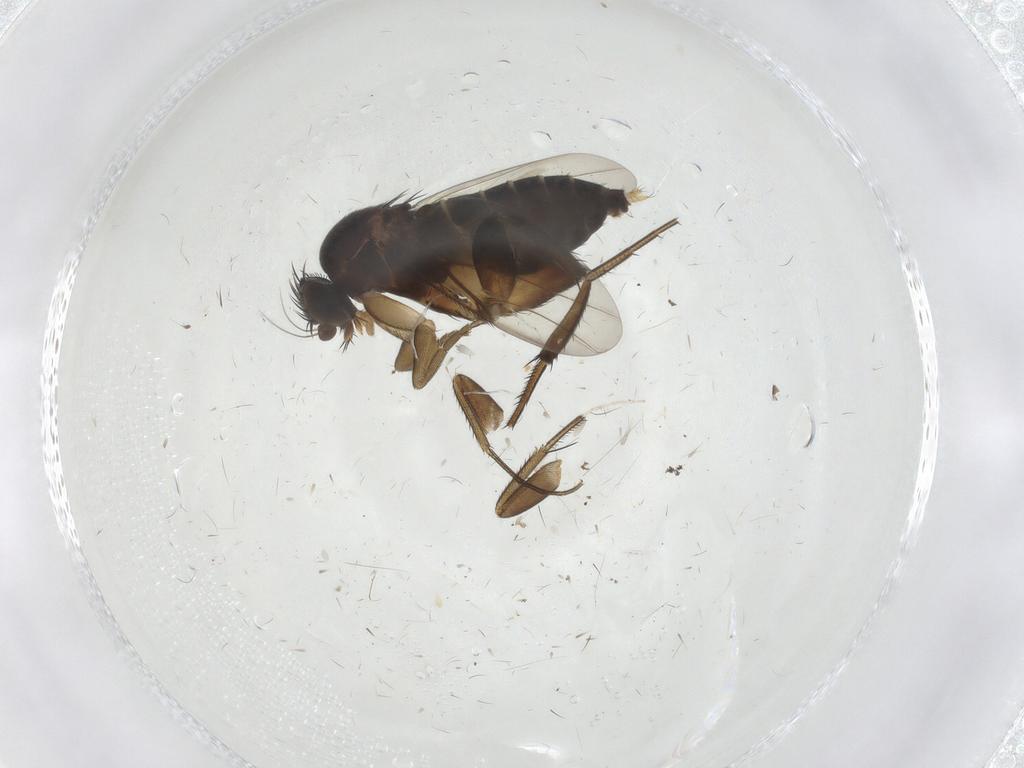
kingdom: Animalia
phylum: Arthropoda
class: Insecta
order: Diptera
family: Phoridae
